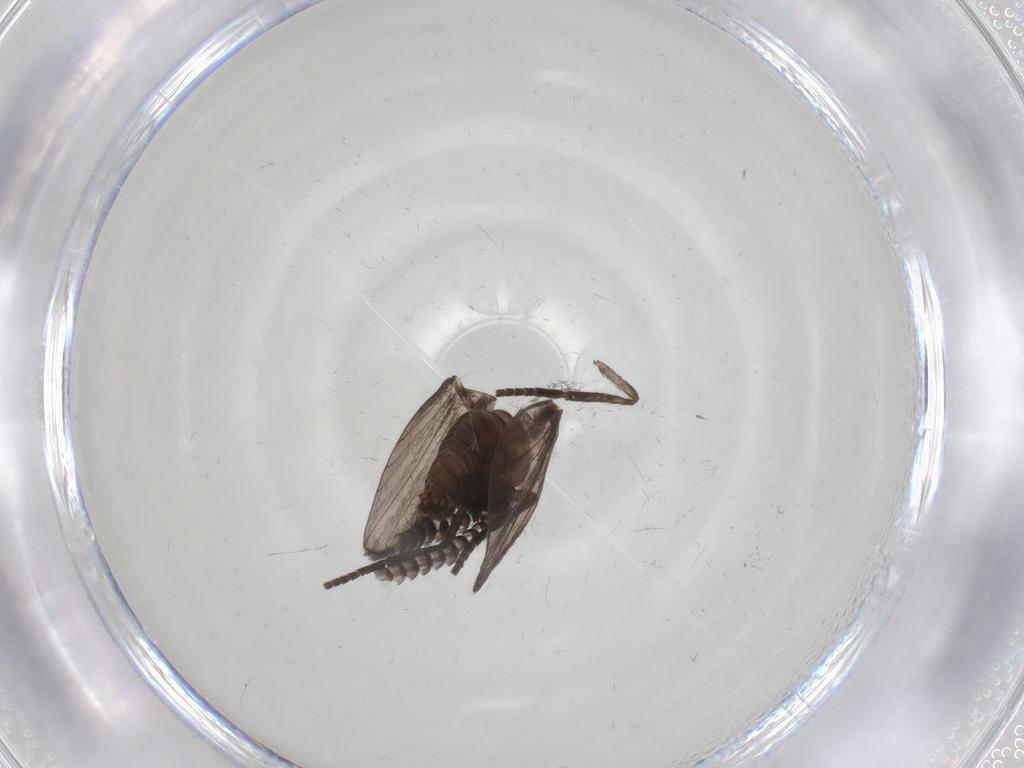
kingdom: Animalia
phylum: Arthropoda
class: Insecta
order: Diptera
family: Psychodidae
